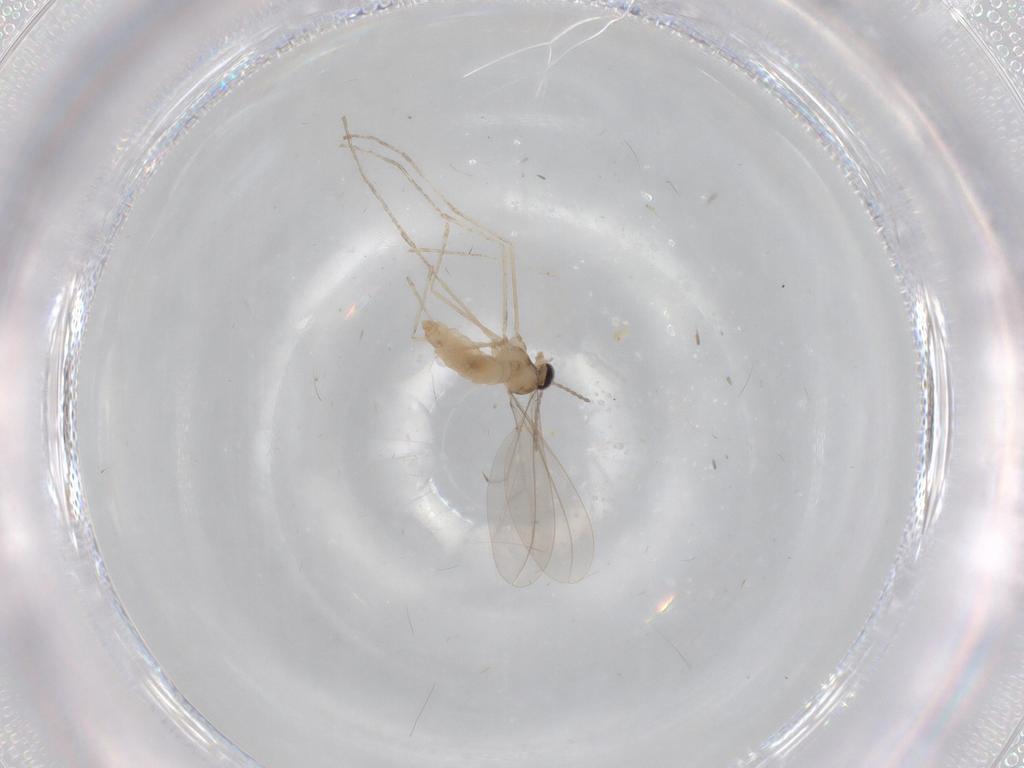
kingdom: Animalia
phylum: Arthropoda
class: Insecta
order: Diptera
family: Cecidomyiidae
